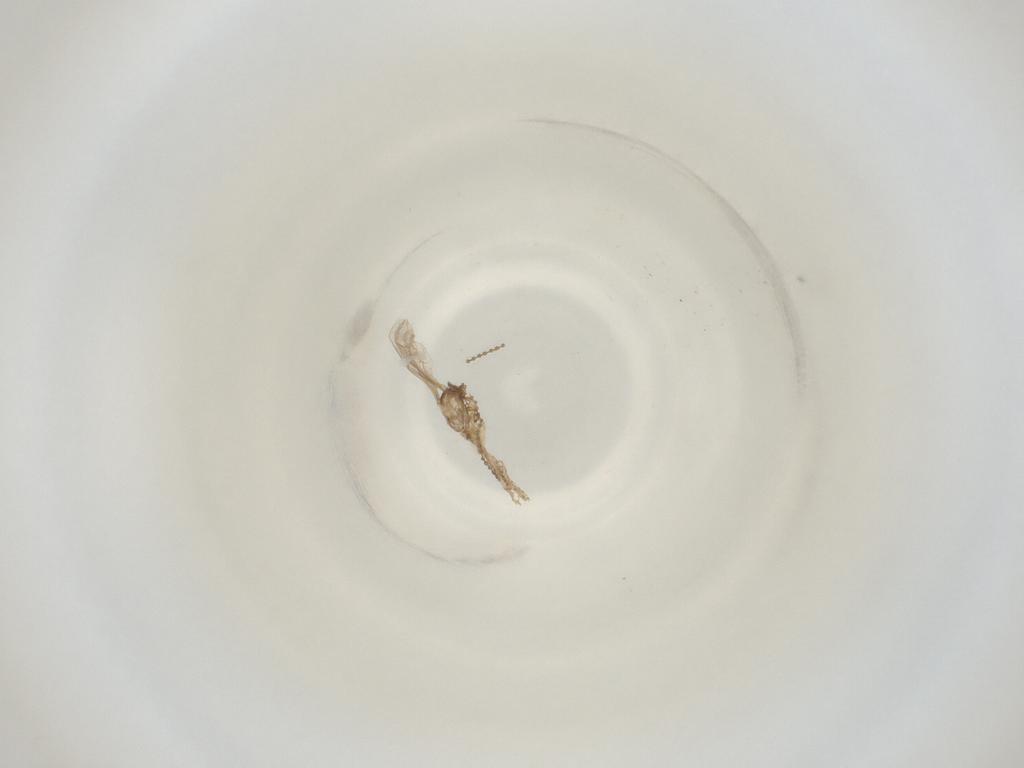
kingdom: Animalia
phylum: Arthropoda
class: Insecta
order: Diptera
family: Cecidomyiidae
